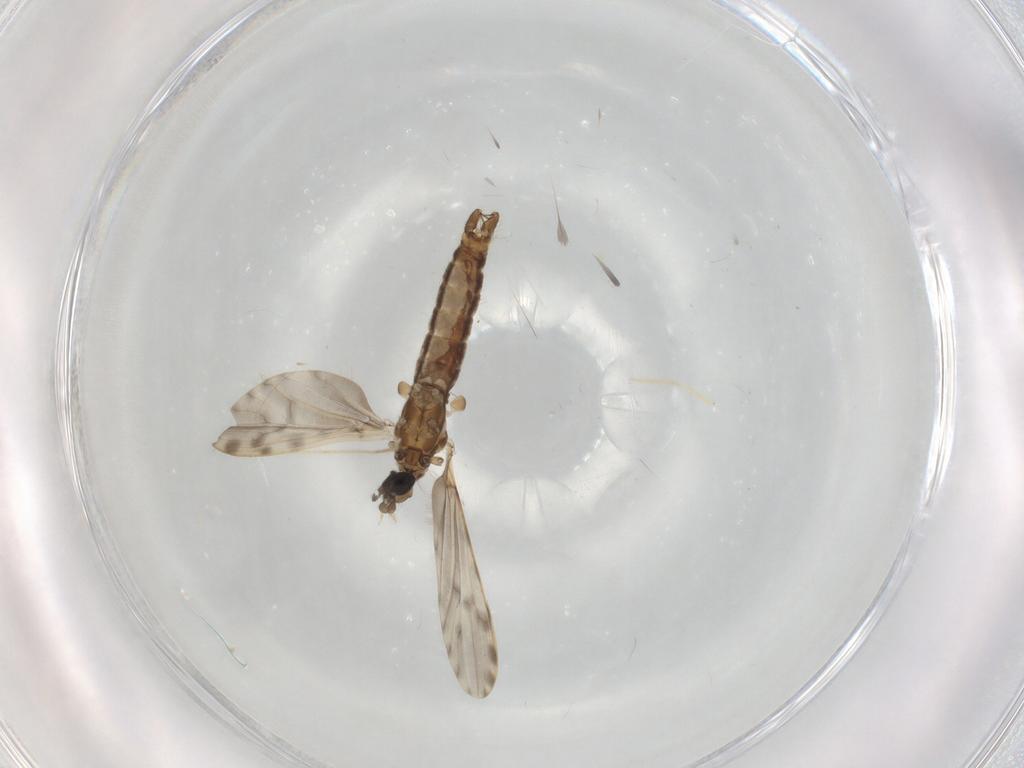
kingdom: Animalia
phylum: Arthropoda
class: Insecta
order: Diptera
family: Limoniidae
